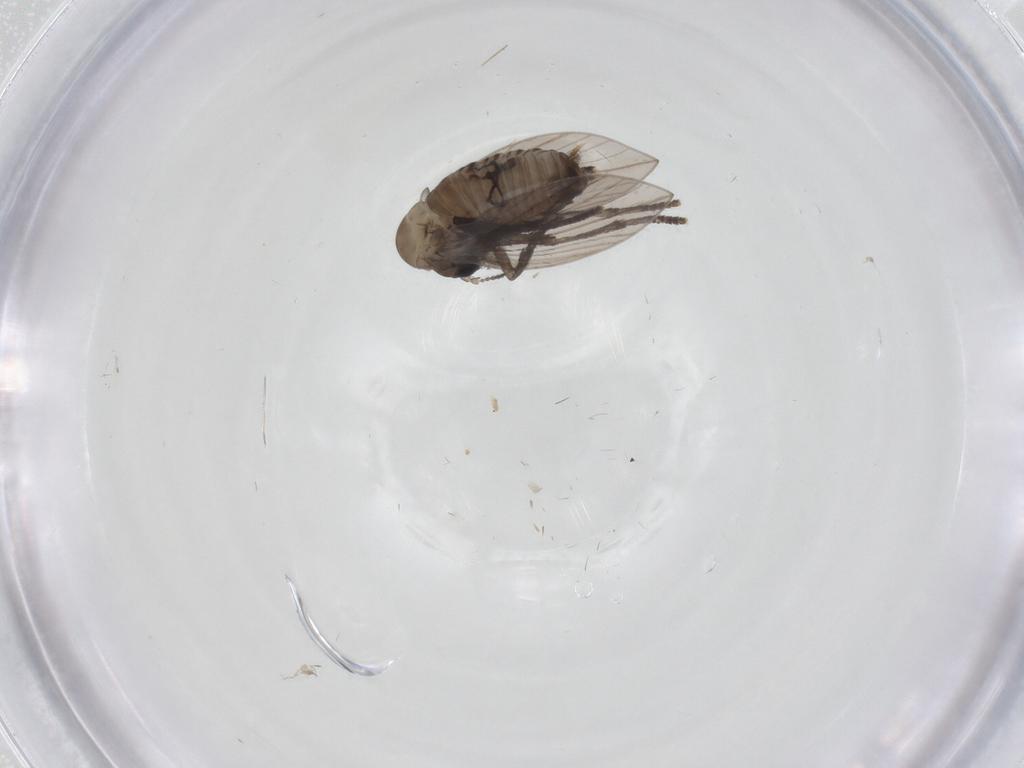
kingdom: Animalia
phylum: Arthropoda
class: Insecta
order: Diptera
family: Psychodidae
